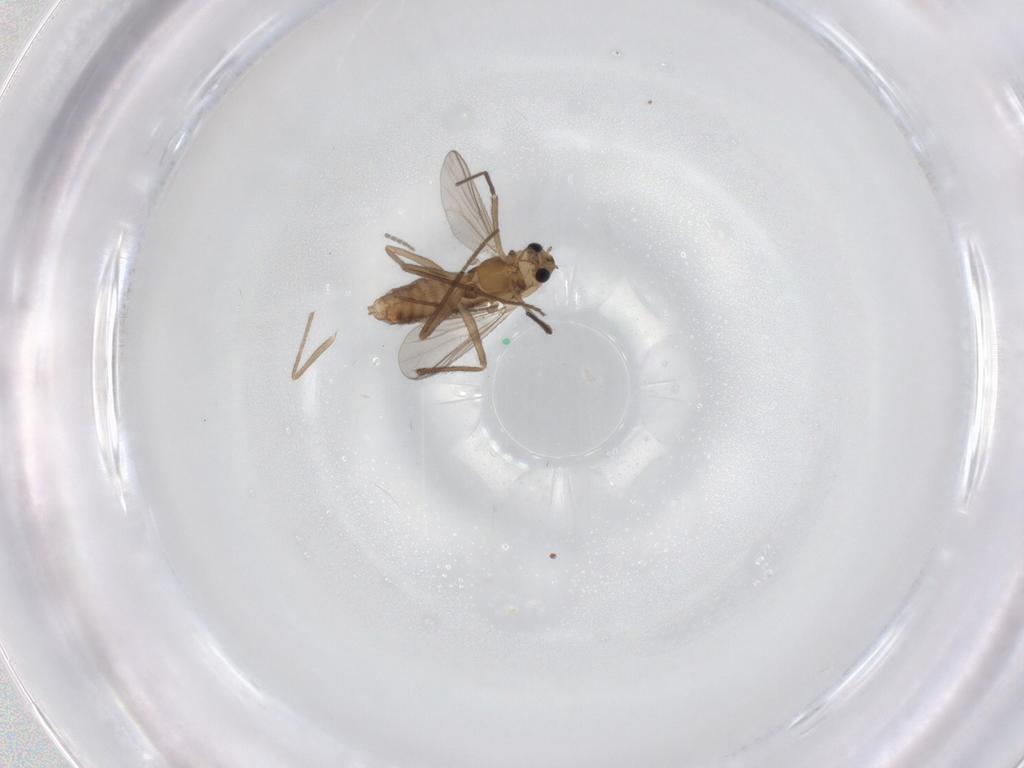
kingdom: Animalia
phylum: Arthropoda
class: Insecta
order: Diptera
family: Chironomidae
